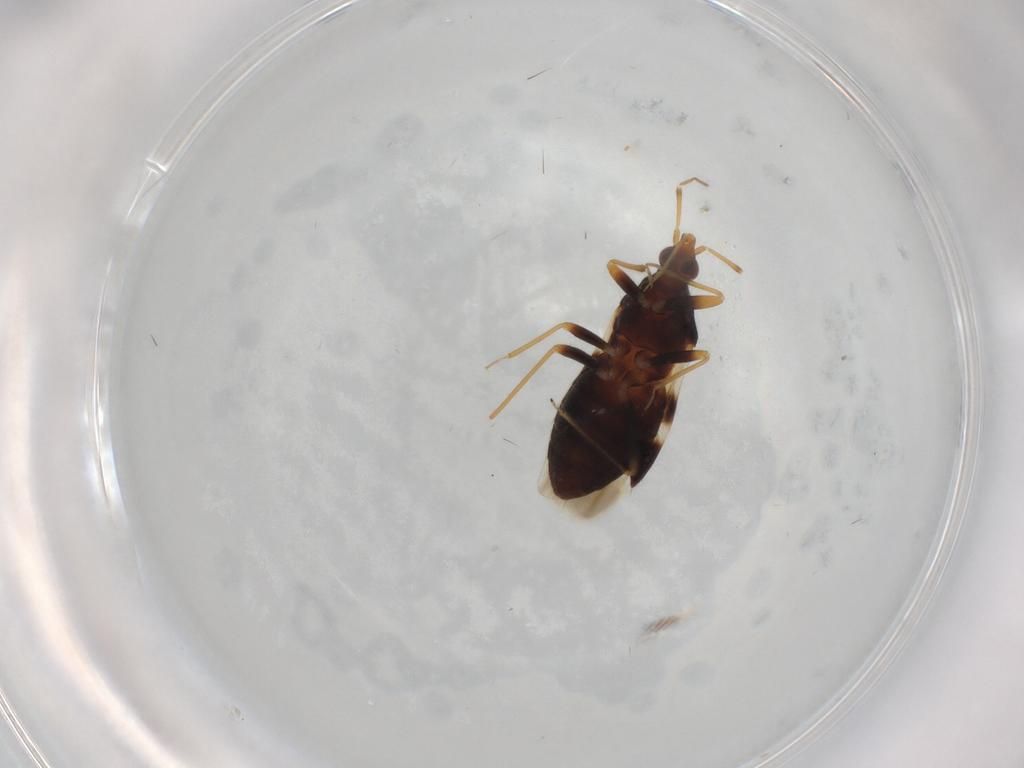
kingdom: Animalia
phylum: Arthropoda
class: Insecta
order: Hemiptera
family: Anthocoridae
